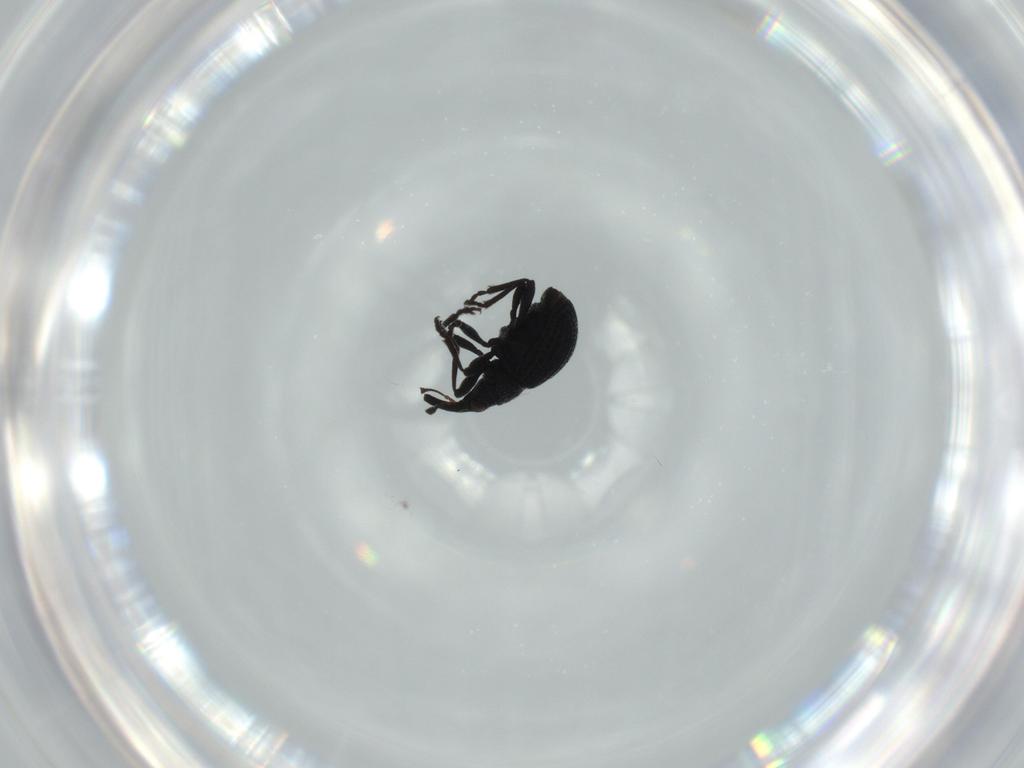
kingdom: Animalia
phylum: Arthropoda
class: Insecta
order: Coleoptera
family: Brentidae
